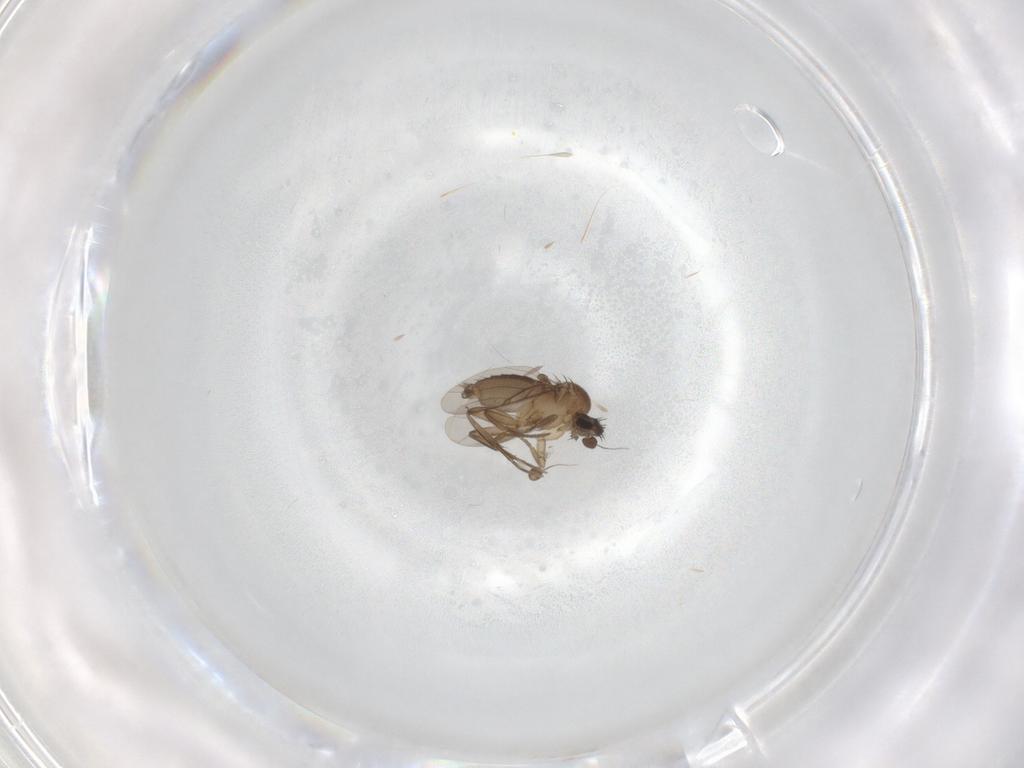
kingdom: Animalia
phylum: Arthropoda
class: Insecta
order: Diptera
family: Phoridae
